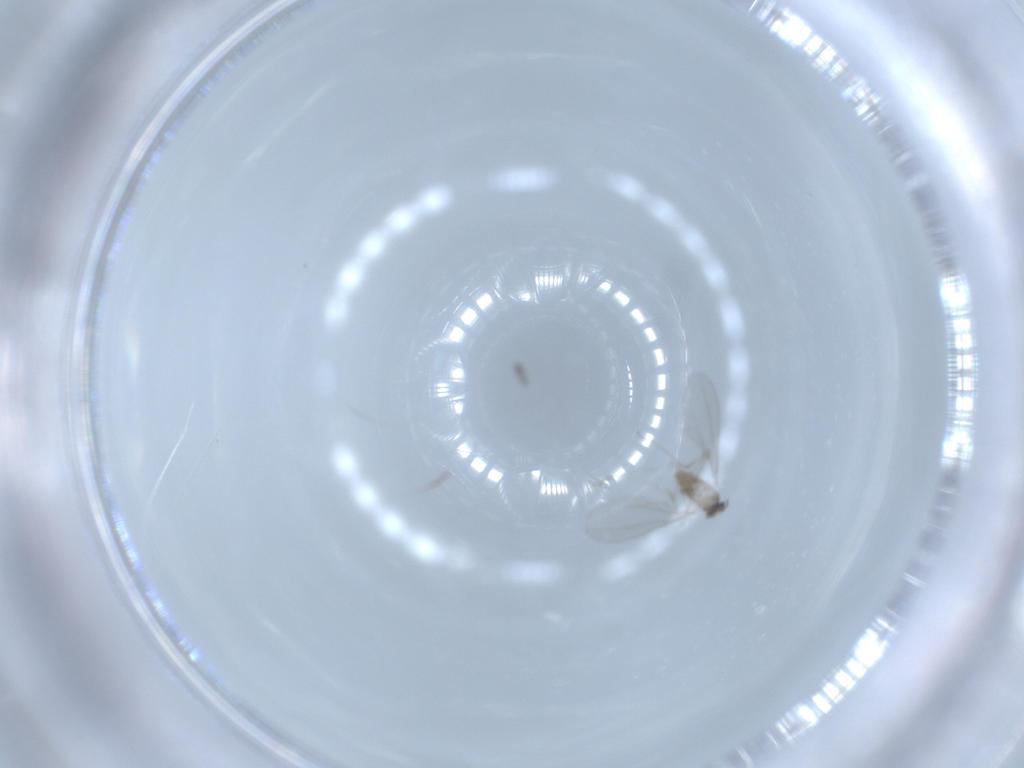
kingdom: Animalia
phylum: Arthropoda
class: Insecta
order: Diptera
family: Cecidomyiidae
